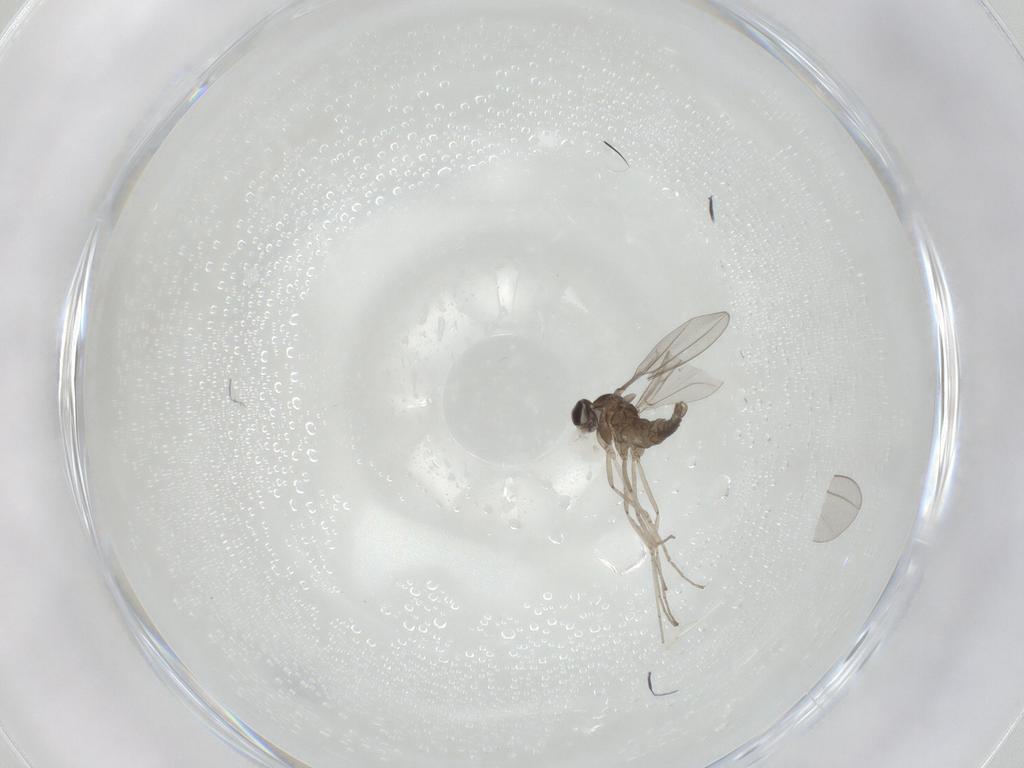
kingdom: Animalia
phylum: Arthropoda
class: Insecta
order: Diptera
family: Cecidomyiidae
